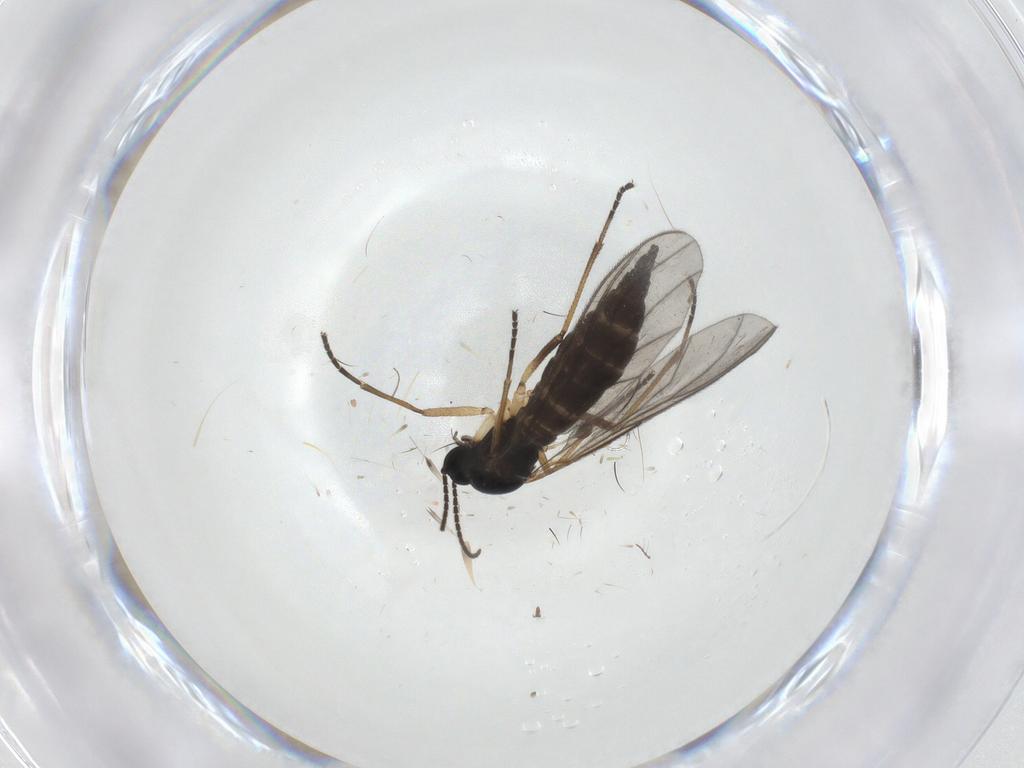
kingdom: Animalia
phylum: Arthropoda
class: Insecta
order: Diptera
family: Sciaridae
